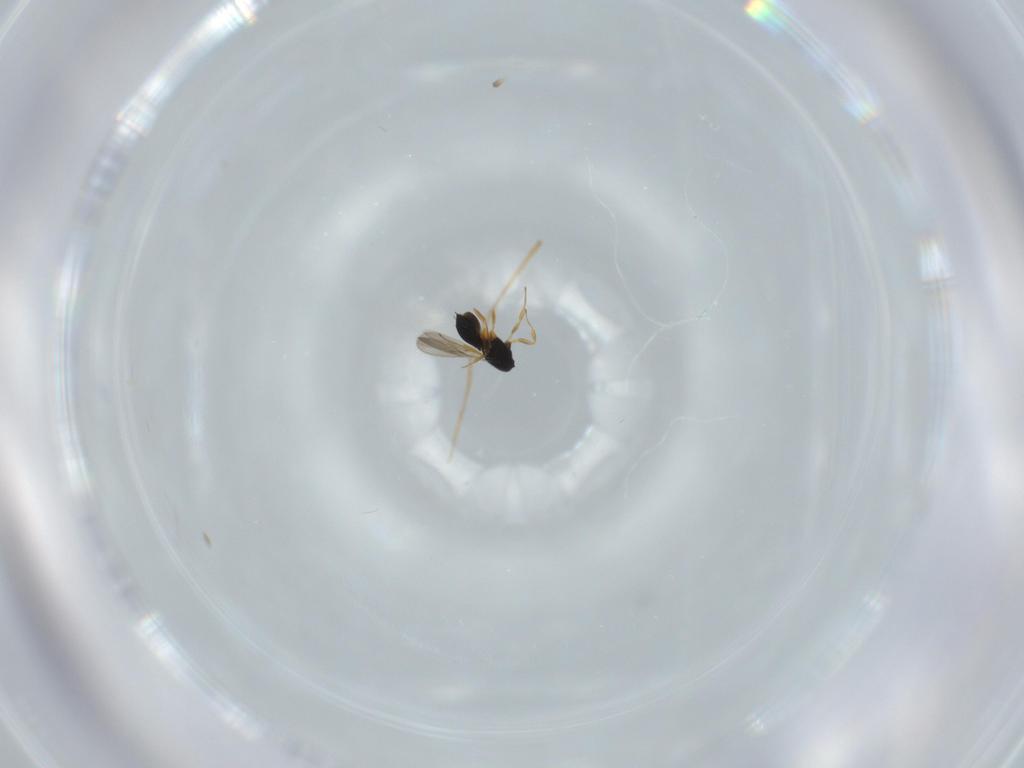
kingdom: Animalia
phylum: Arthropoda
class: Insecta
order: Hymenoptera
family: Scelionidae
